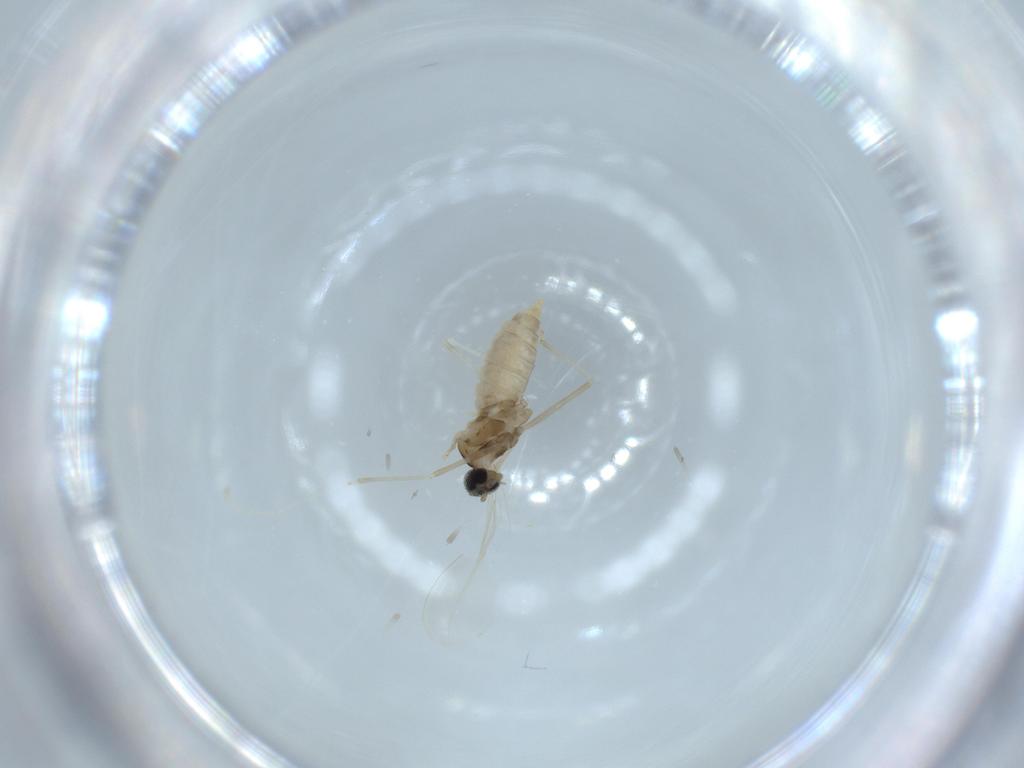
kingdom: Animalia
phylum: Arthropoda
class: Insecta
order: Diptera
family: Cecidomyiidae
